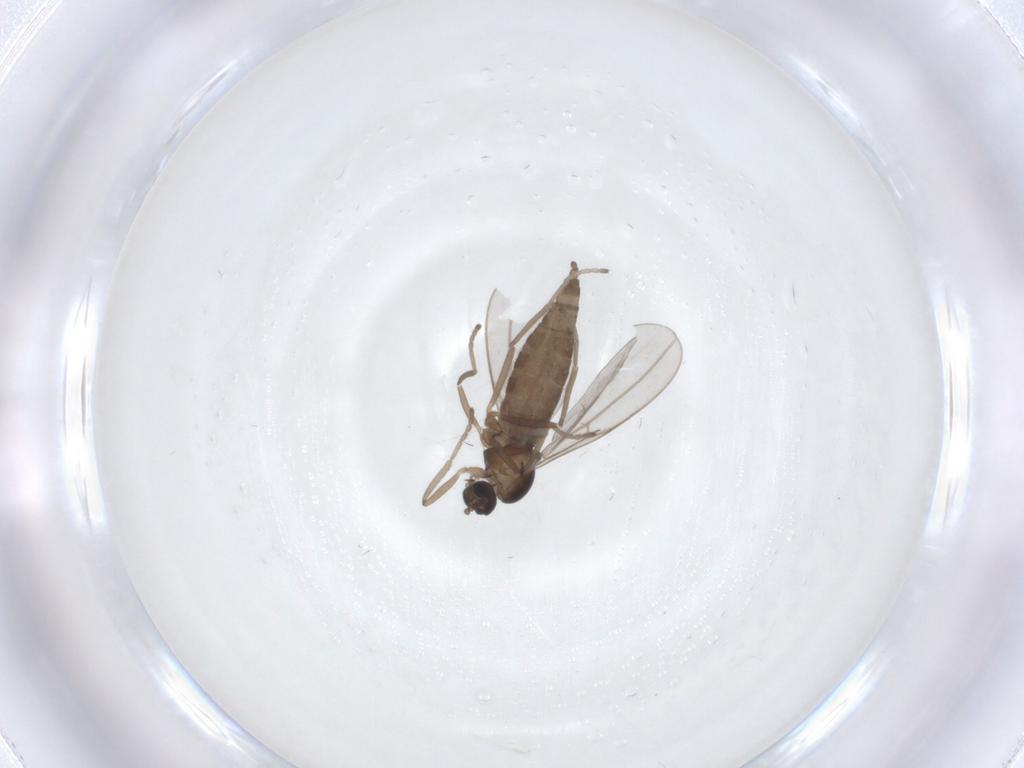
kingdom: Animalia
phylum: Arthropoda
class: Insecta
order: Diptera
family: Cecidomyiidae
